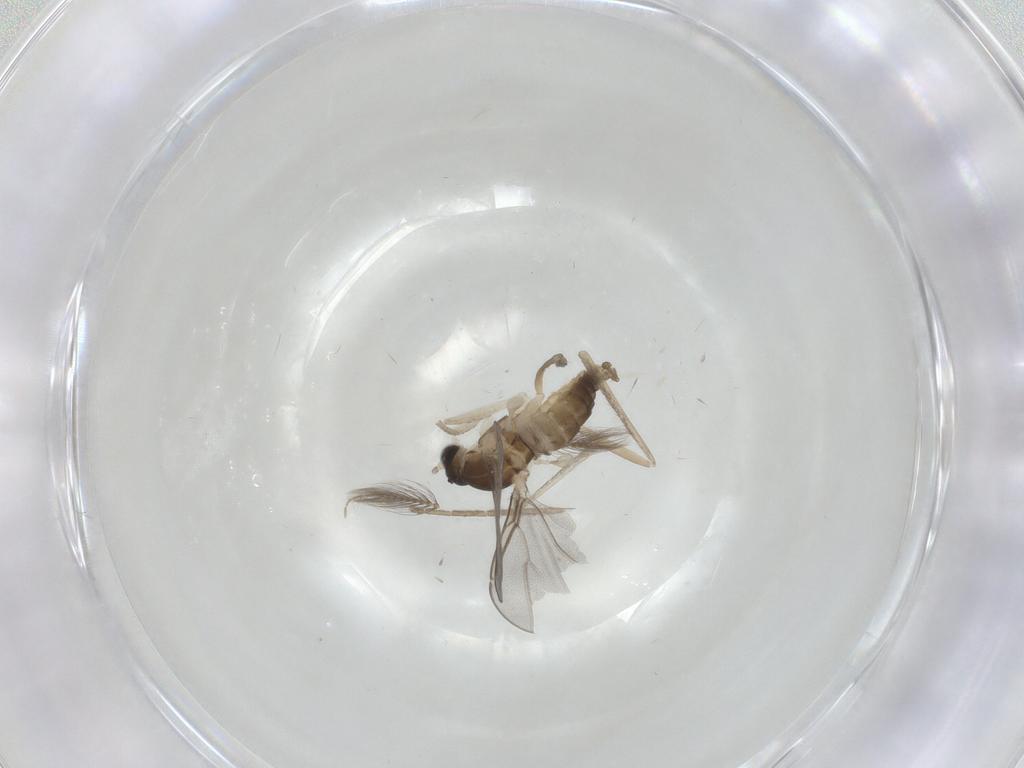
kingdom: Animalia
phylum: Arthropoda
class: Insecta
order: Diptera
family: Cecidomyiidae
